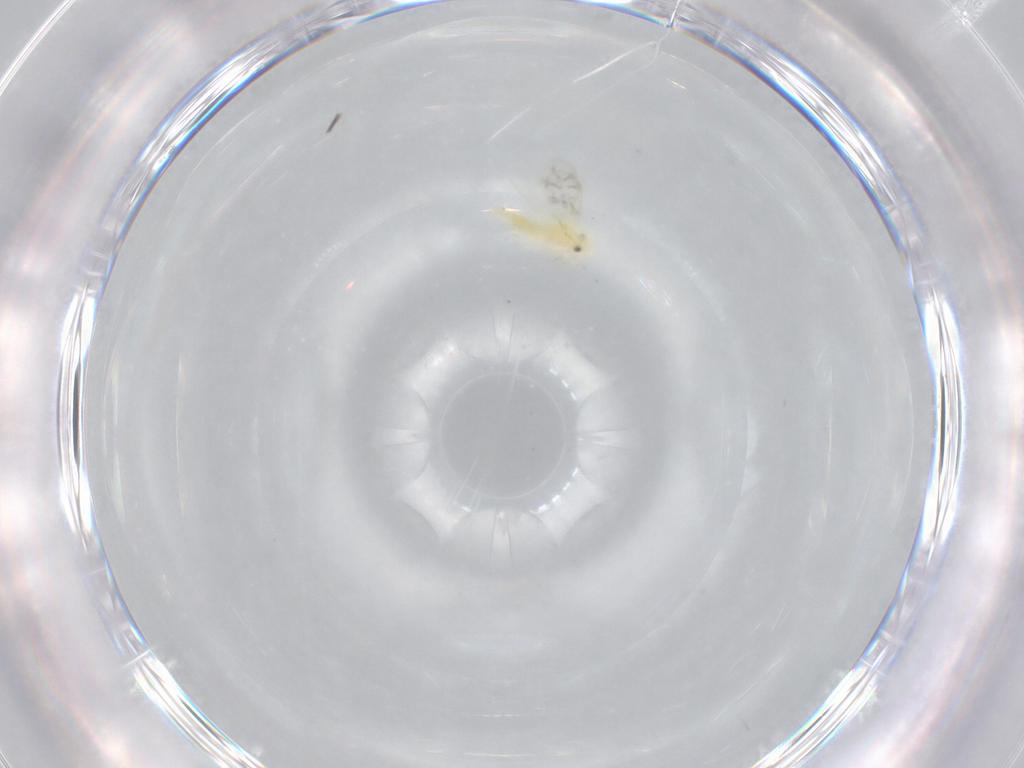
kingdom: Animalia
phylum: Arthropoda
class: Insecta
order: Hemiptera
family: Aleyrodidae
